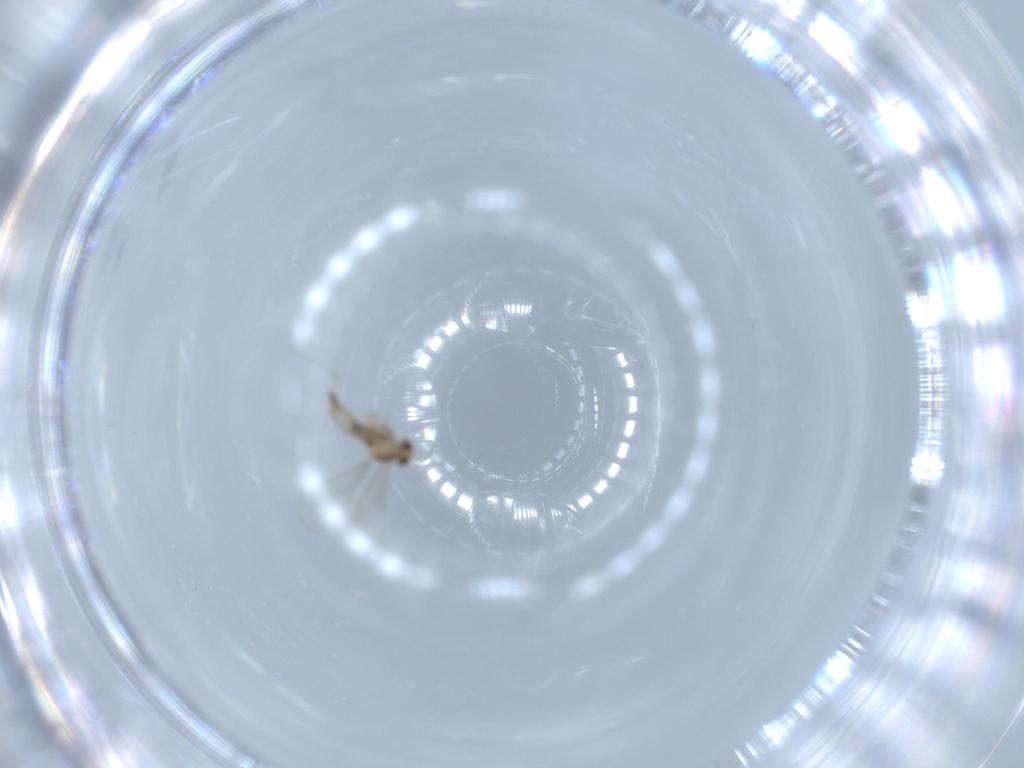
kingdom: Animalia
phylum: Arthropoda
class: Insecta
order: Diptera
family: Cecidomyiidae
